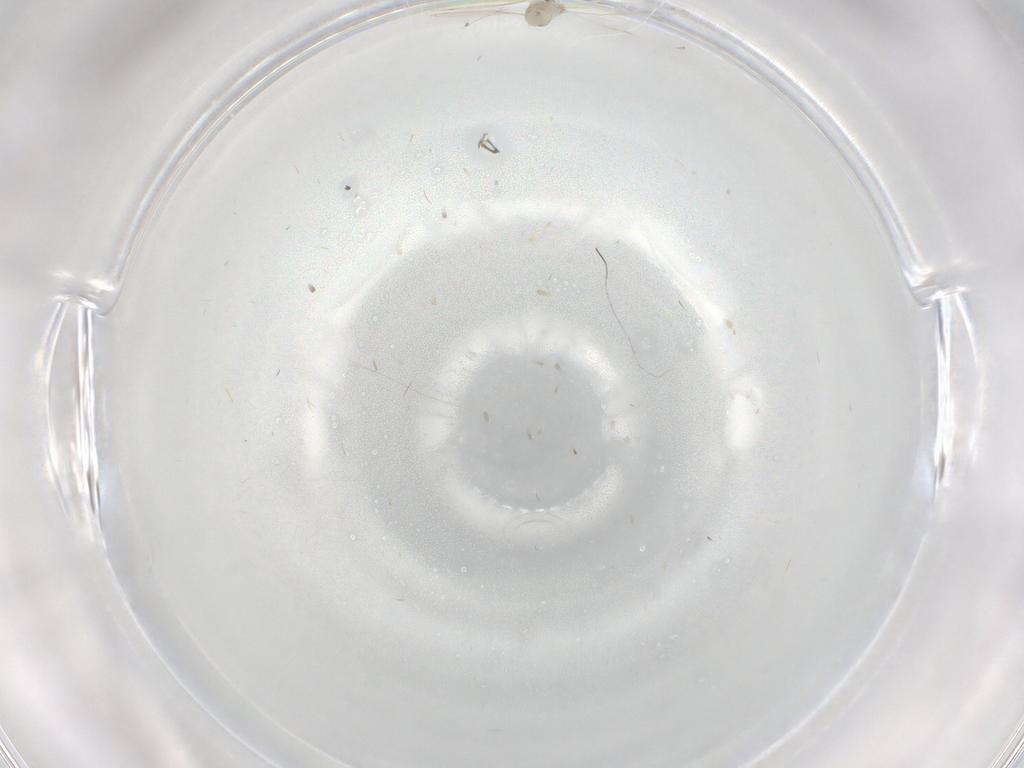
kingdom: Animalia
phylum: Arthropoda
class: Insecta
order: Diptera
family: Cecidomyiidae
